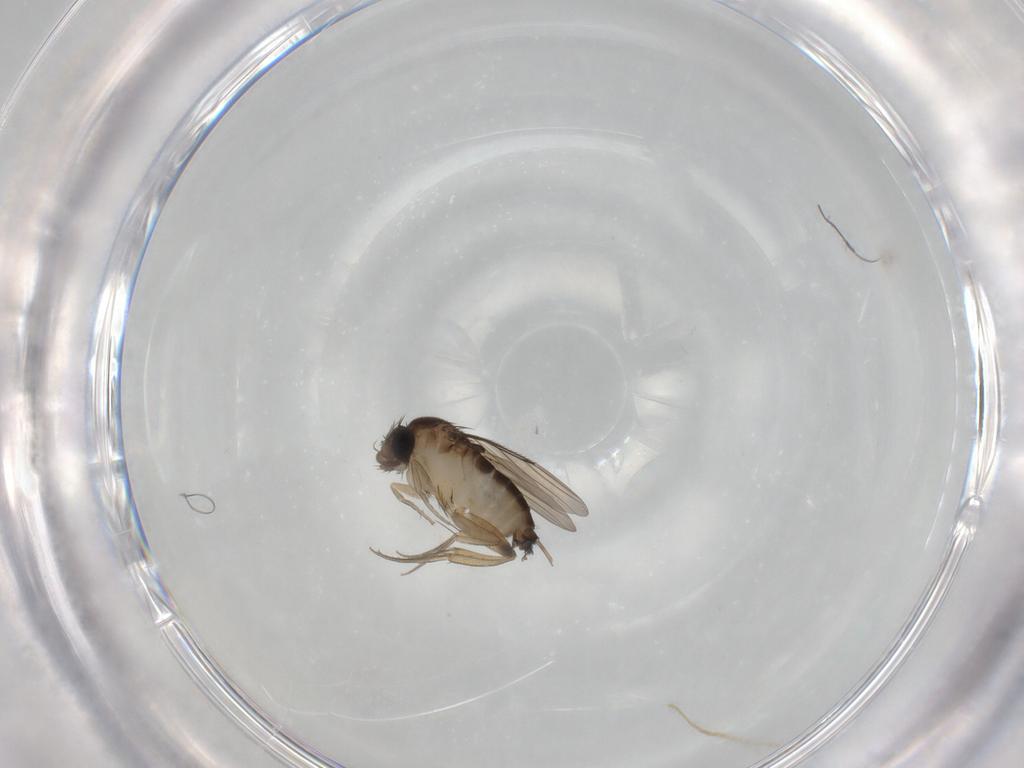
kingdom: Animalia
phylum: Arthropoda
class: Insecta
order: Diptera
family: Phoridae
